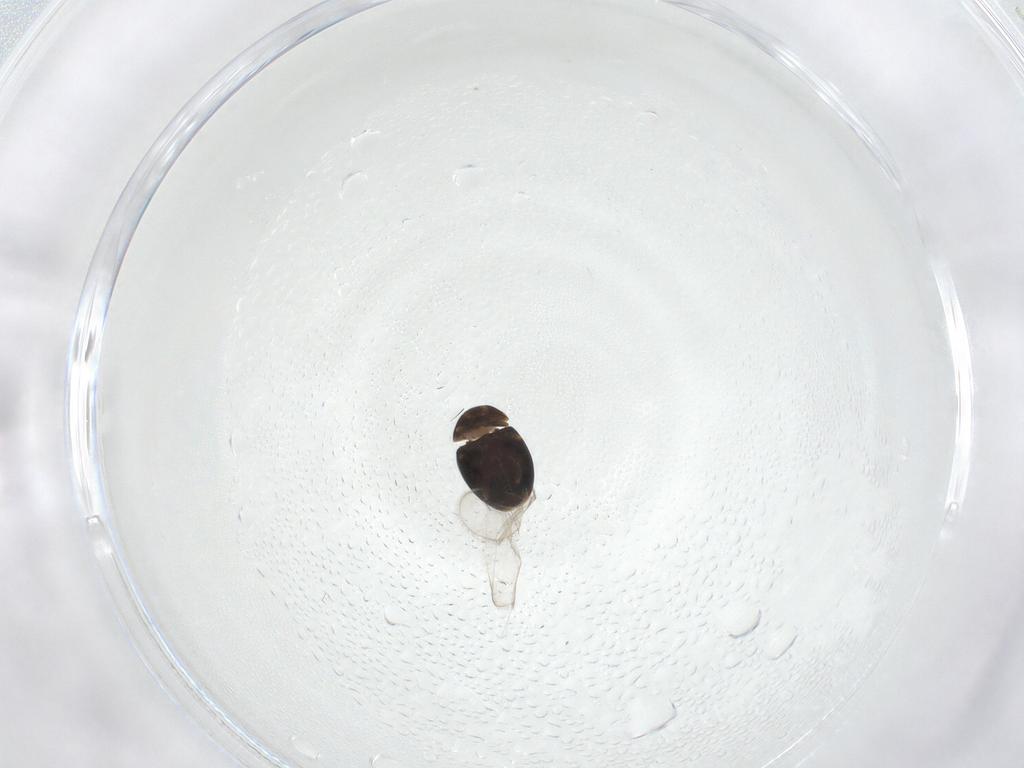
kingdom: Animalia
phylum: Arthropoda
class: Insecta
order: Coleoptera
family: Corylophidae
